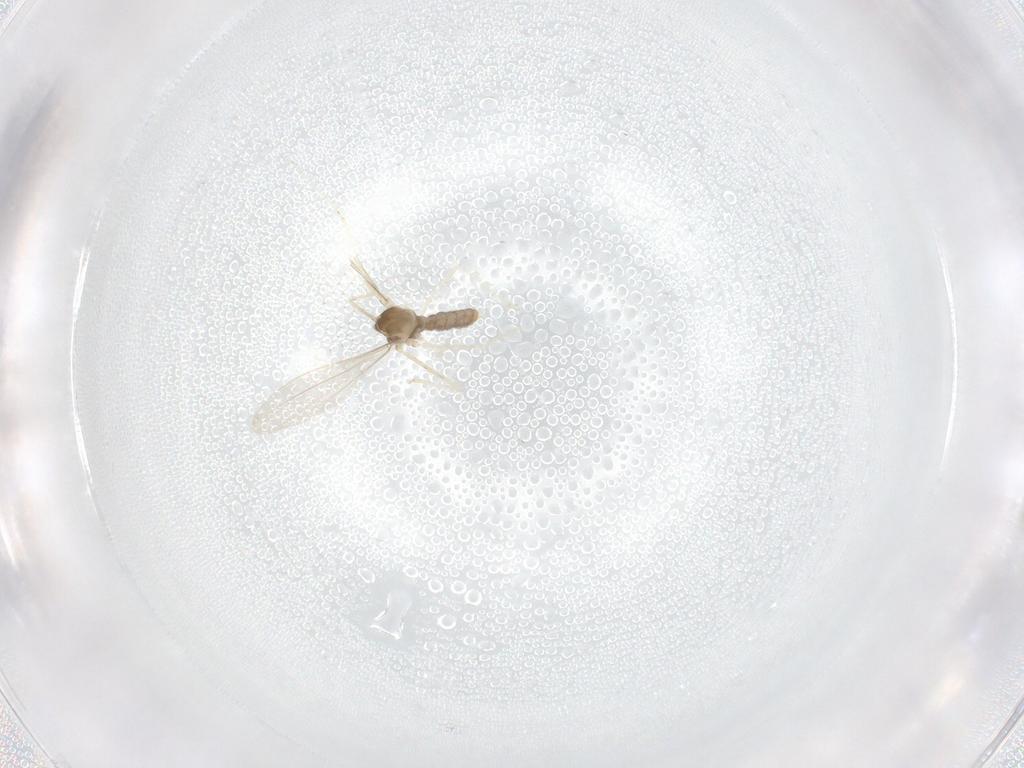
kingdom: Animalia
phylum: Arthropoda
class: Insecta
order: Diptera
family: Cecidomyiidae
